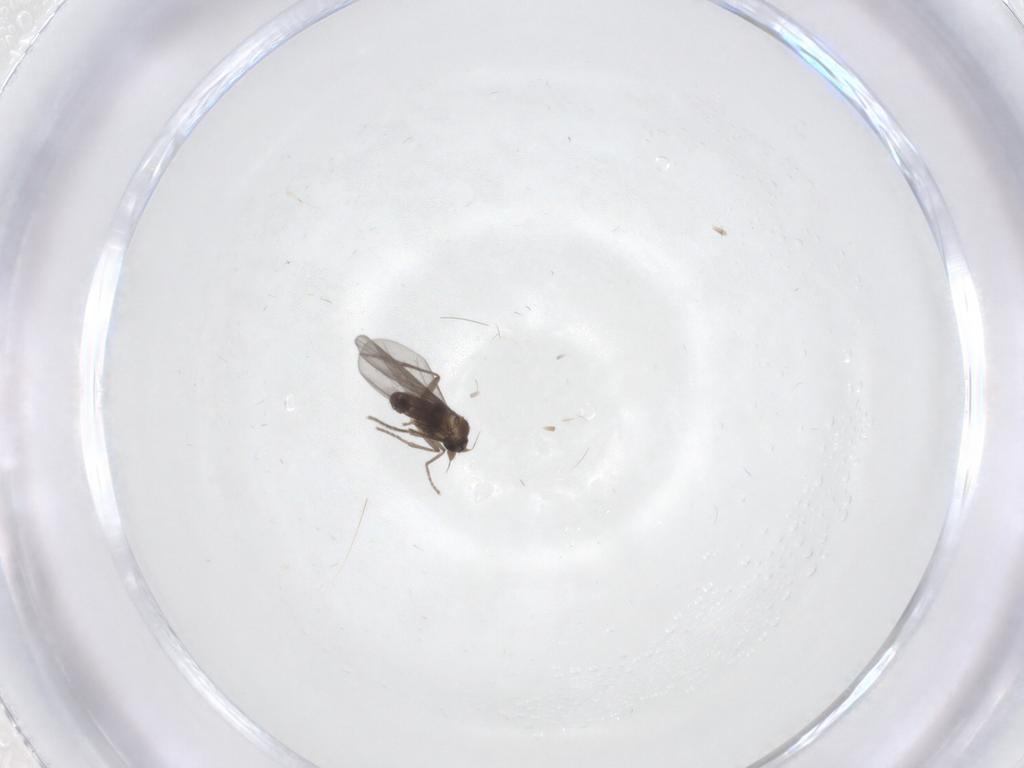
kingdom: Animalia
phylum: Arthropoda
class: Insecta
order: Diptera
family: Phoridae
